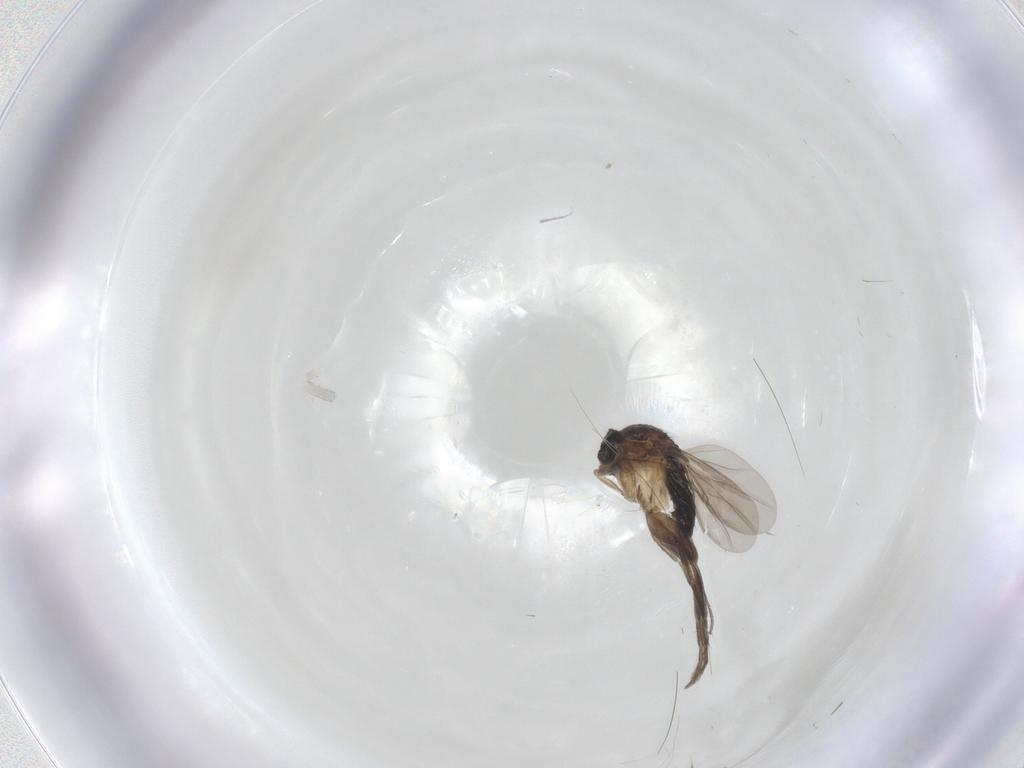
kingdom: Animalia
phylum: Arthropoda
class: Insecta
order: Diptera
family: Phoridae
